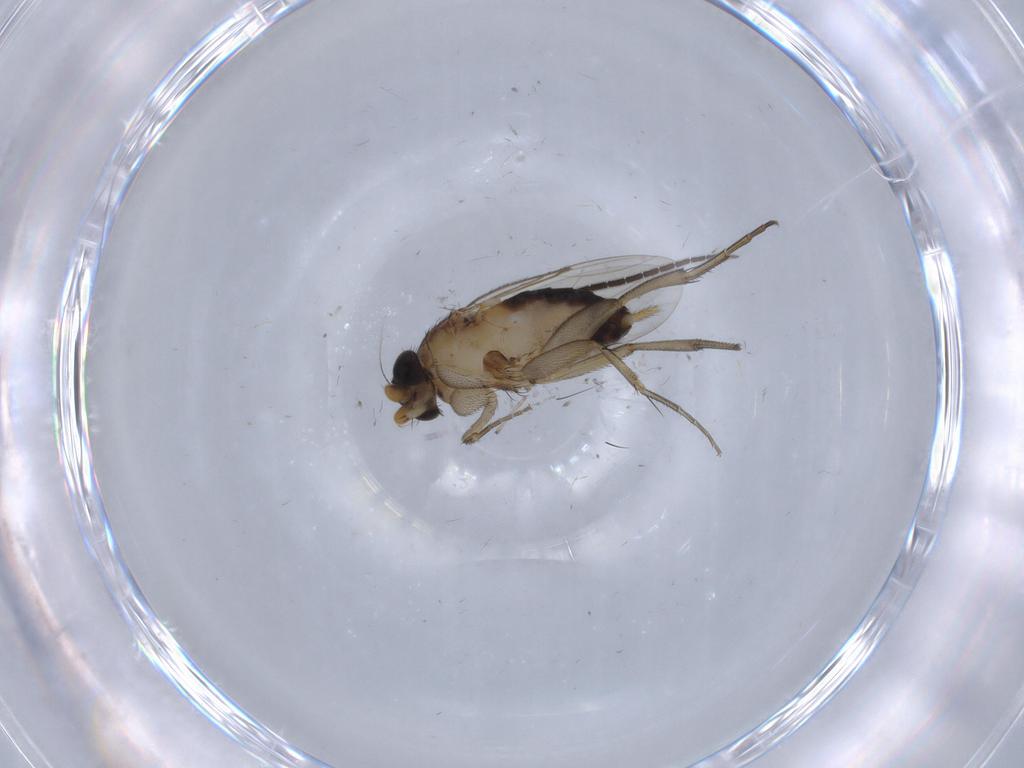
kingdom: Animalia
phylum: Arthropoda
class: Insecta
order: Diptera
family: Sciaridae
